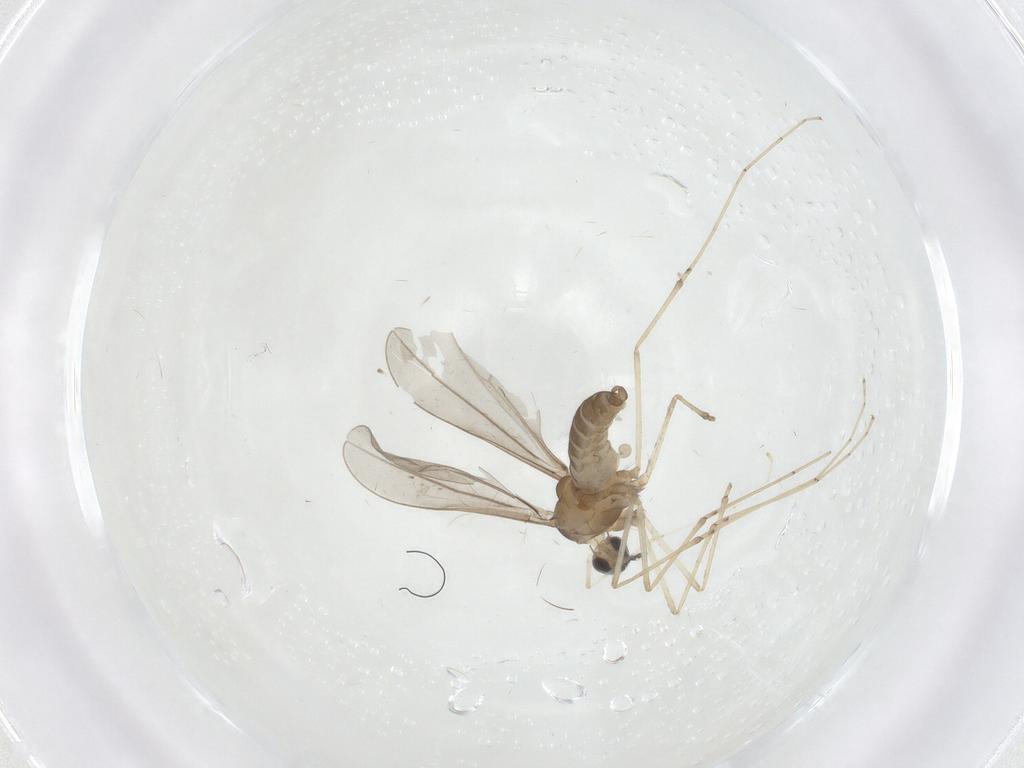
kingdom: Animalia
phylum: Arthropoda
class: Insecta
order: Diptera
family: Cecidomyiidae
